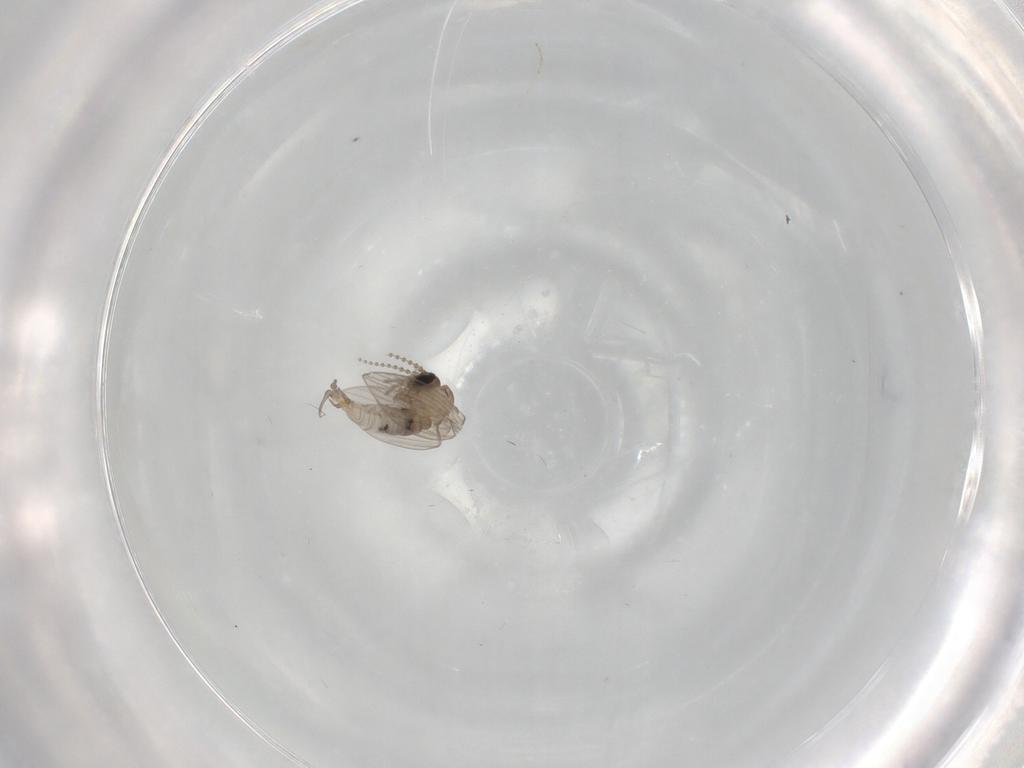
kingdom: Animalia
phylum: Arthropoda
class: Insecta
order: Diptera
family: Psychodidae
